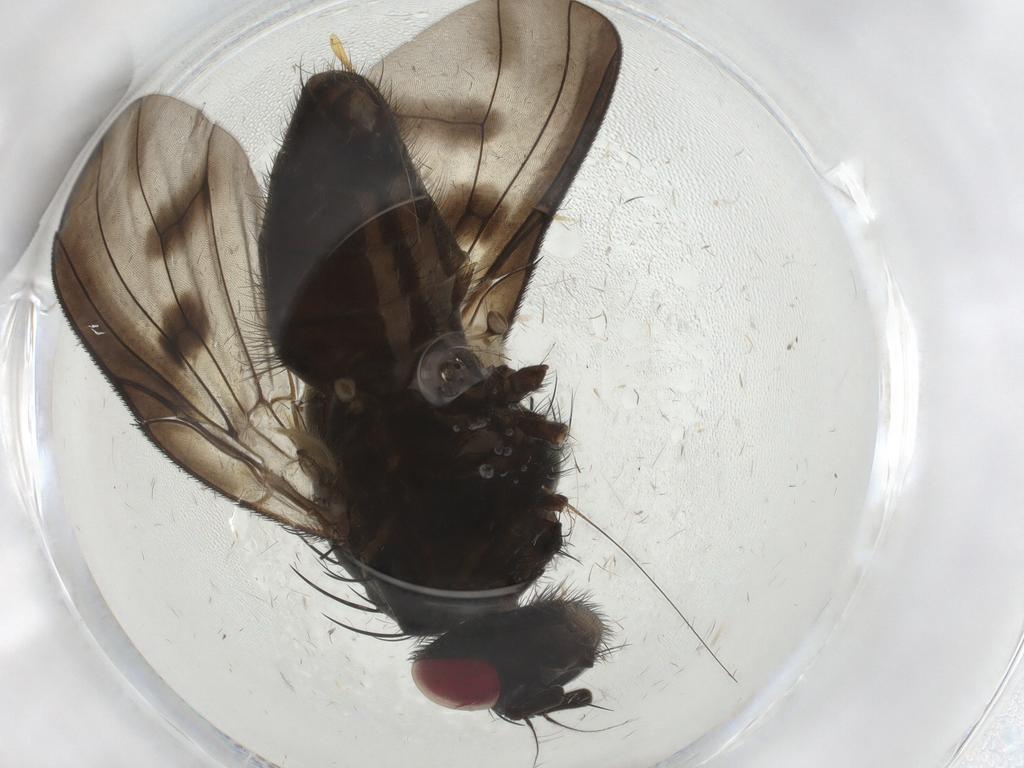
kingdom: Animalia
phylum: Arthropoda
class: Insecta
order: Diptera
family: Muscidae
